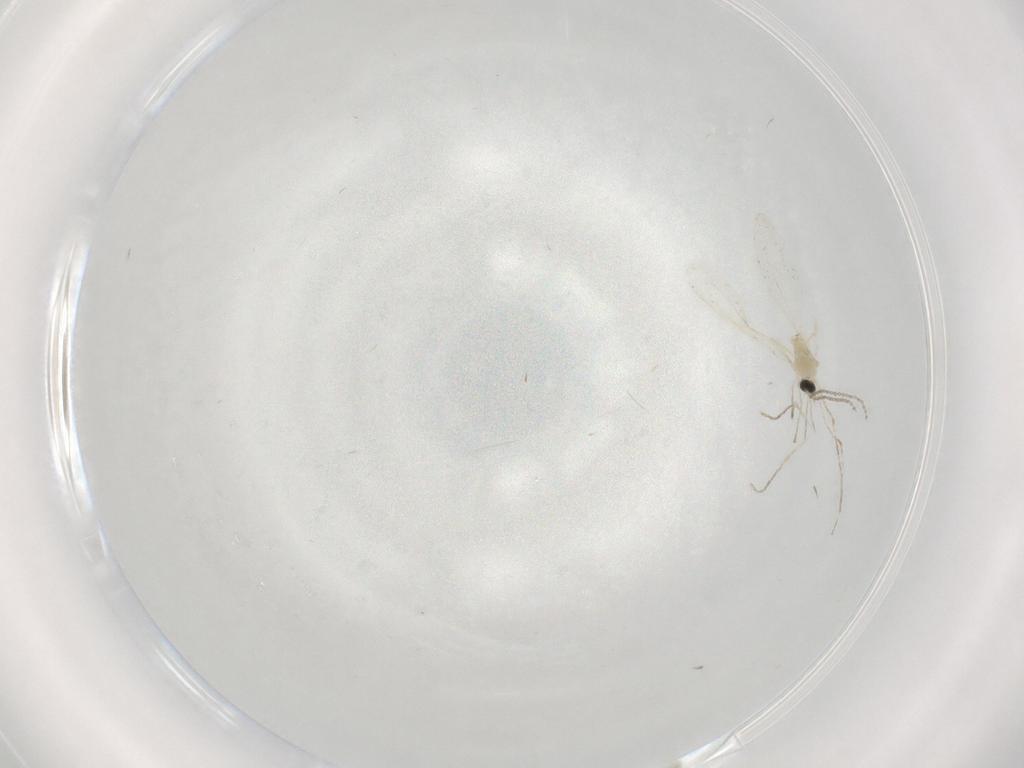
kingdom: Animalia
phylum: Arthropoda
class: Insecta
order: Diptera
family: Cecidomyiidae
